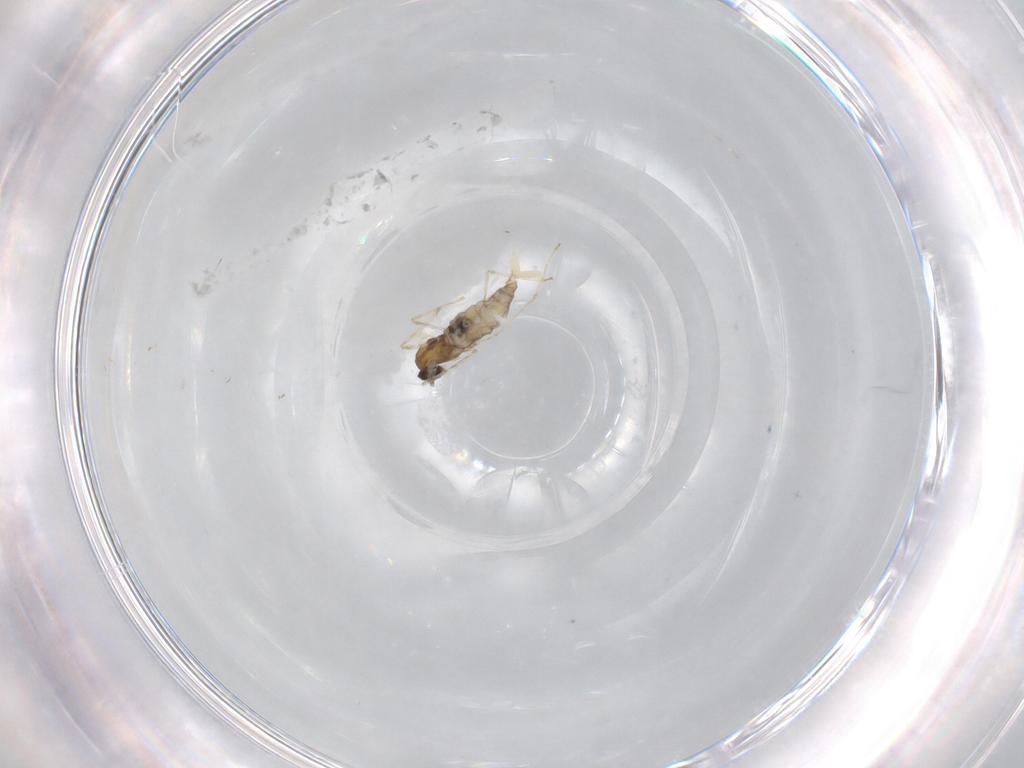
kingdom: Animalia
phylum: Arthropoda
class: Insecta
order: Diptera
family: Cecidomyiidae
